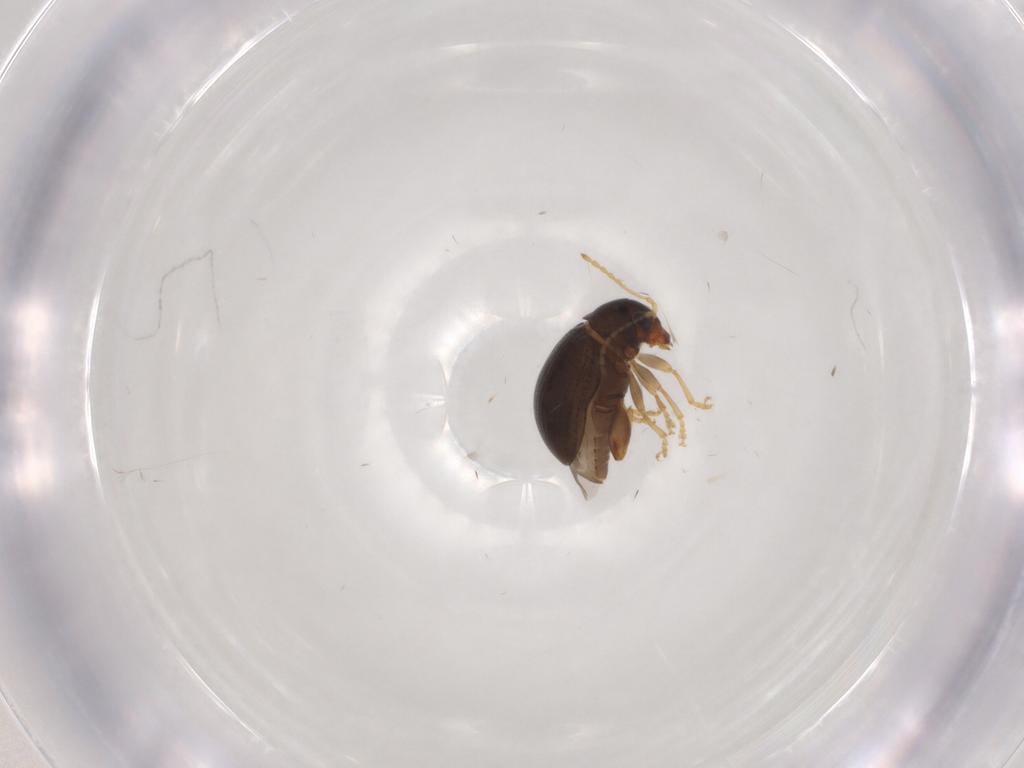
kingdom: Animalia
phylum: Arthropoda
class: Insecta
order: Coleoptera
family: Chrysomelidae
